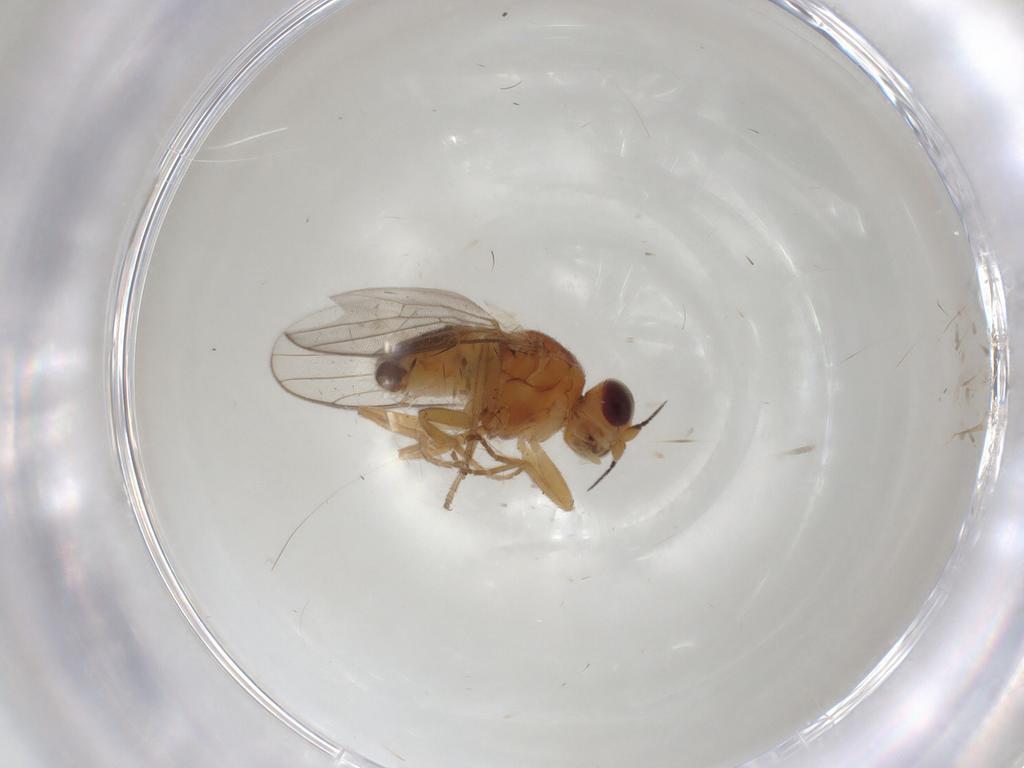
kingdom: Animalia
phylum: Arthropoda
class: Insecta
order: Diptera
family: Chloropidae
